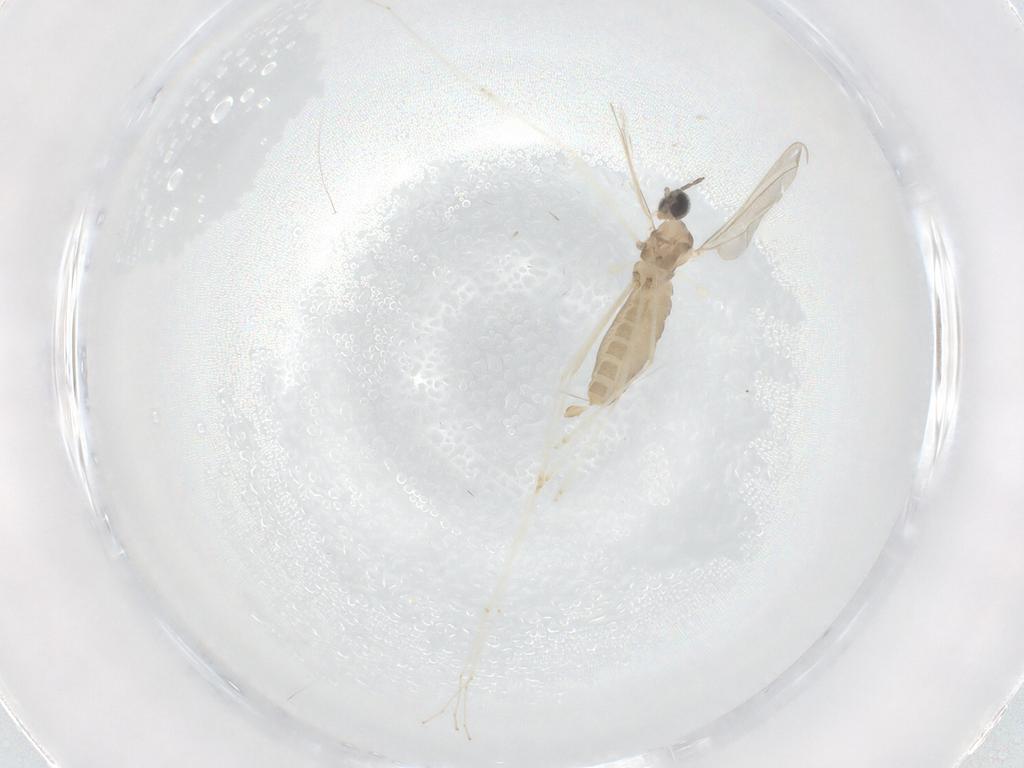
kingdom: Animalia
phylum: Arthropoda
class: Insecta
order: Diptera
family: Cecidomyiidae
